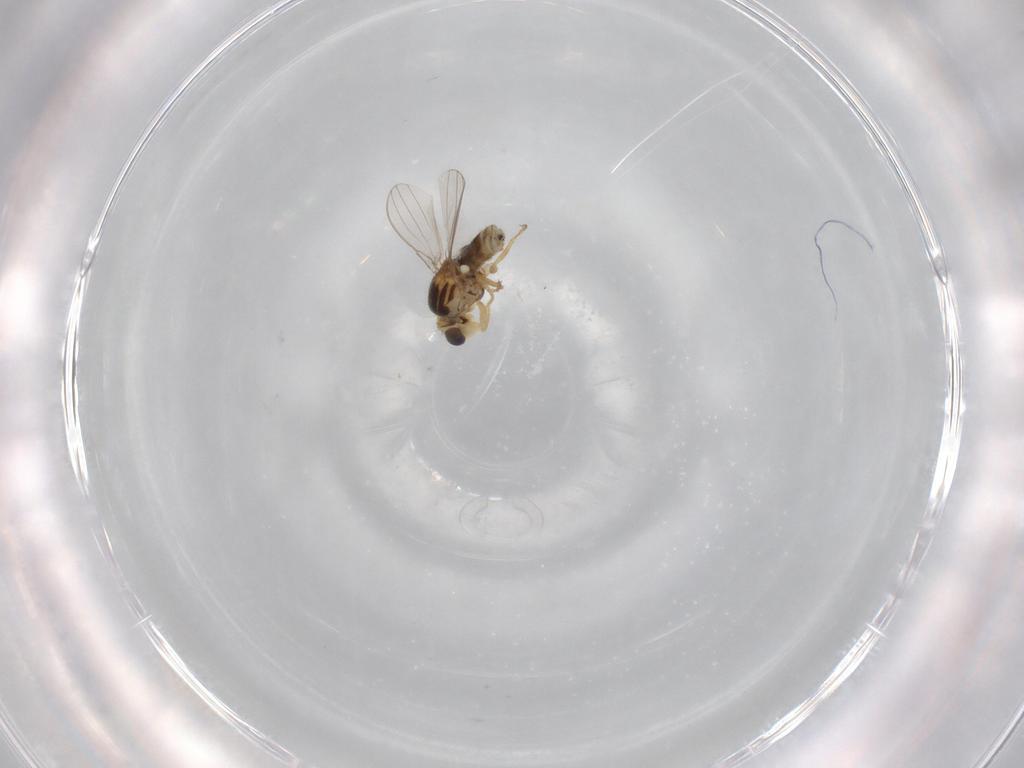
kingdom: Animalia
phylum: Arthropoda
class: Insecta
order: Diptera
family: Chyromyidae
